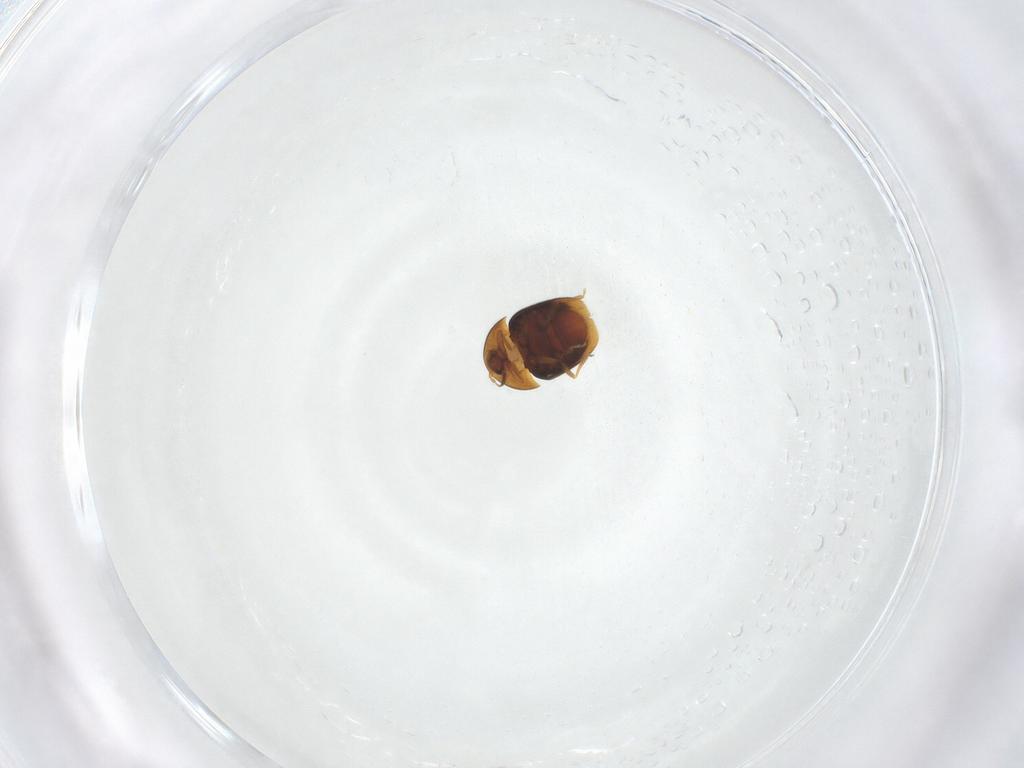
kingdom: Animalia
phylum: Arthropoda
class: Insecta
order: Coleoptera
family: Corylophidae
